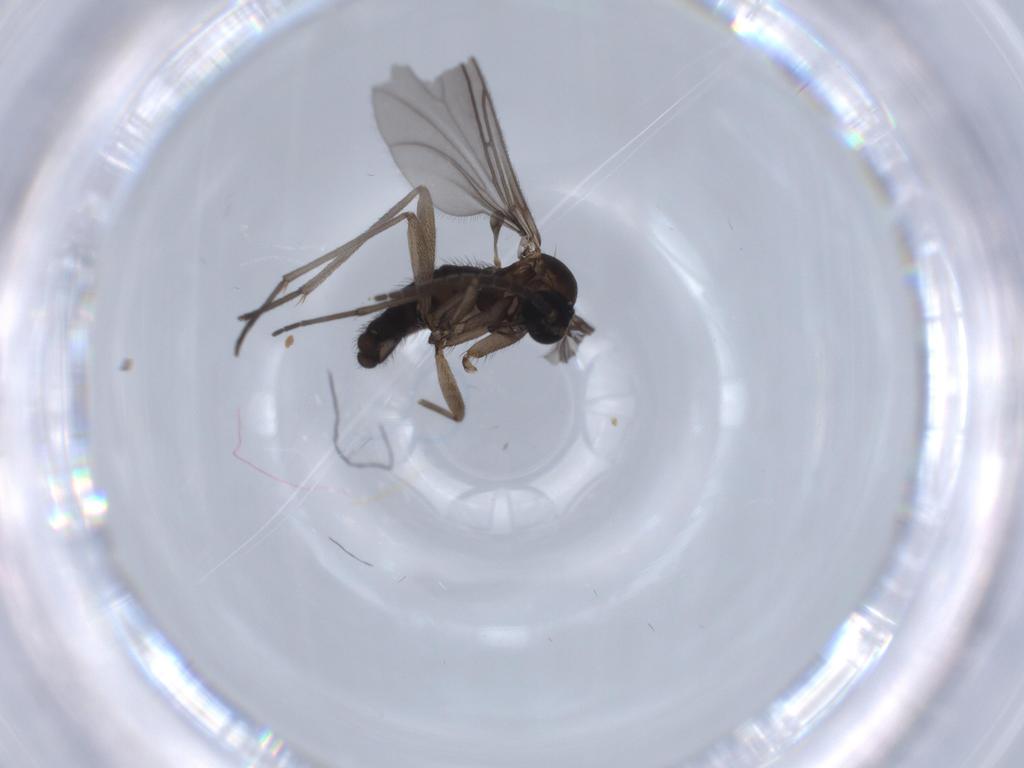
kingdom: Animalia
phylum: Arthropoda
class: Insecta
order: Diptera
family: Sciaridae
